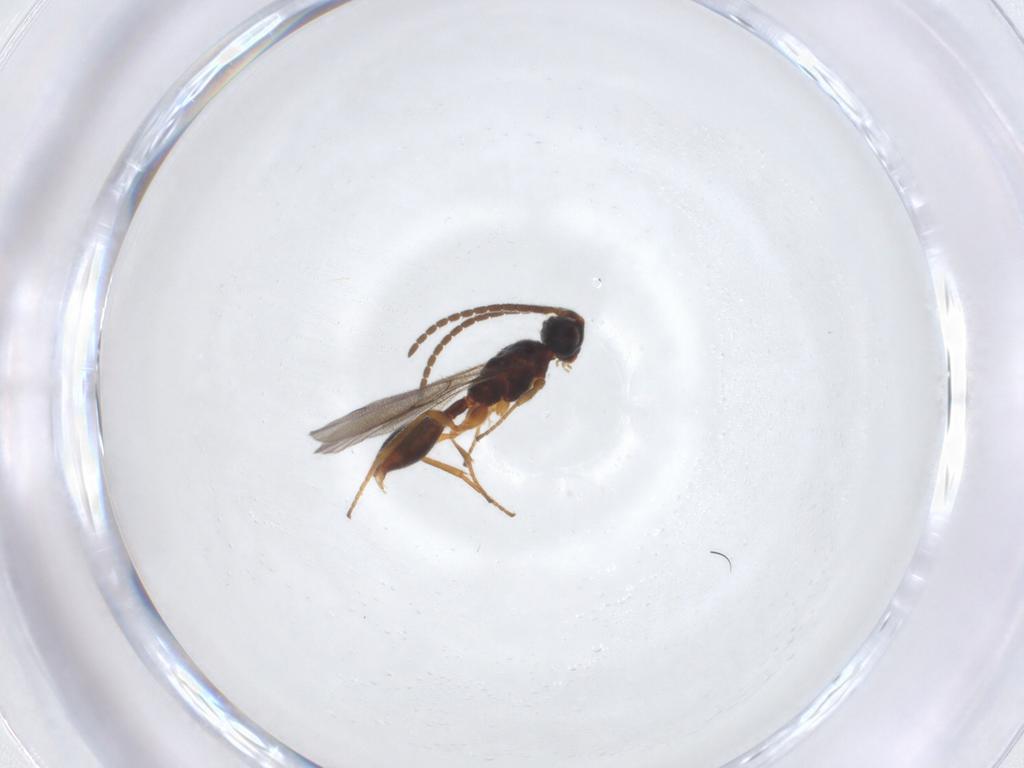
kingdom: Animalia
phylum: Arthropoda
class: Insecta
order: Hymenoptera
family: Diapriidae
